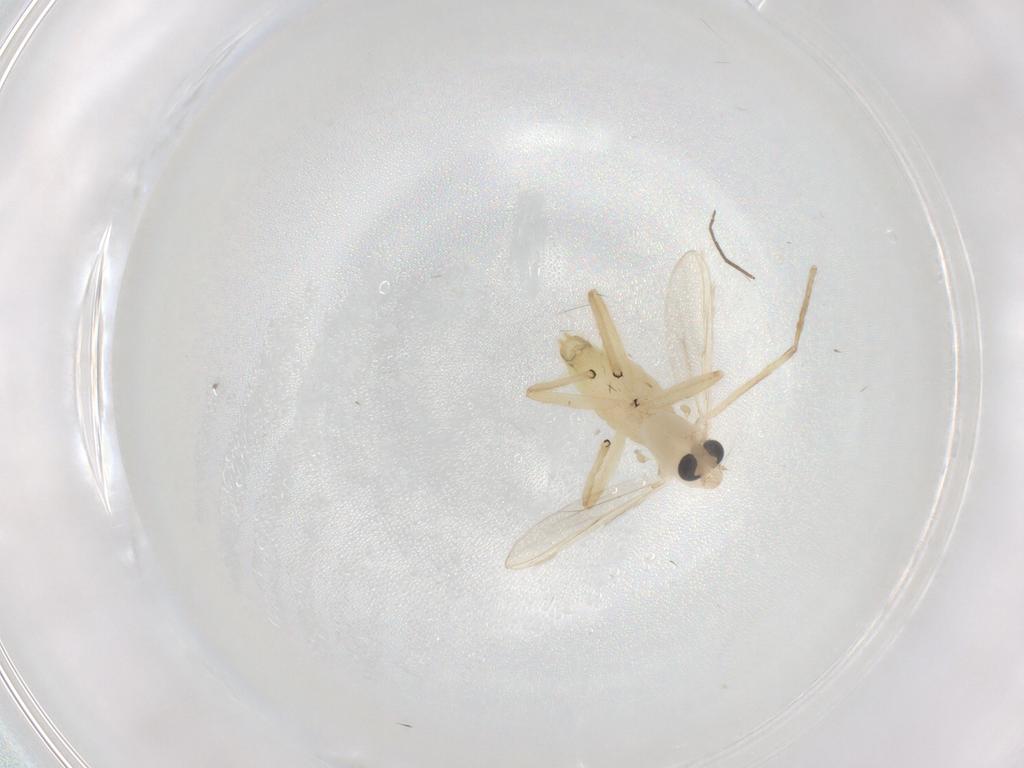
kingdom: Animalia
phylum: Arthropoda
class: Insecta
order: Diptera
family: Chironomidae
